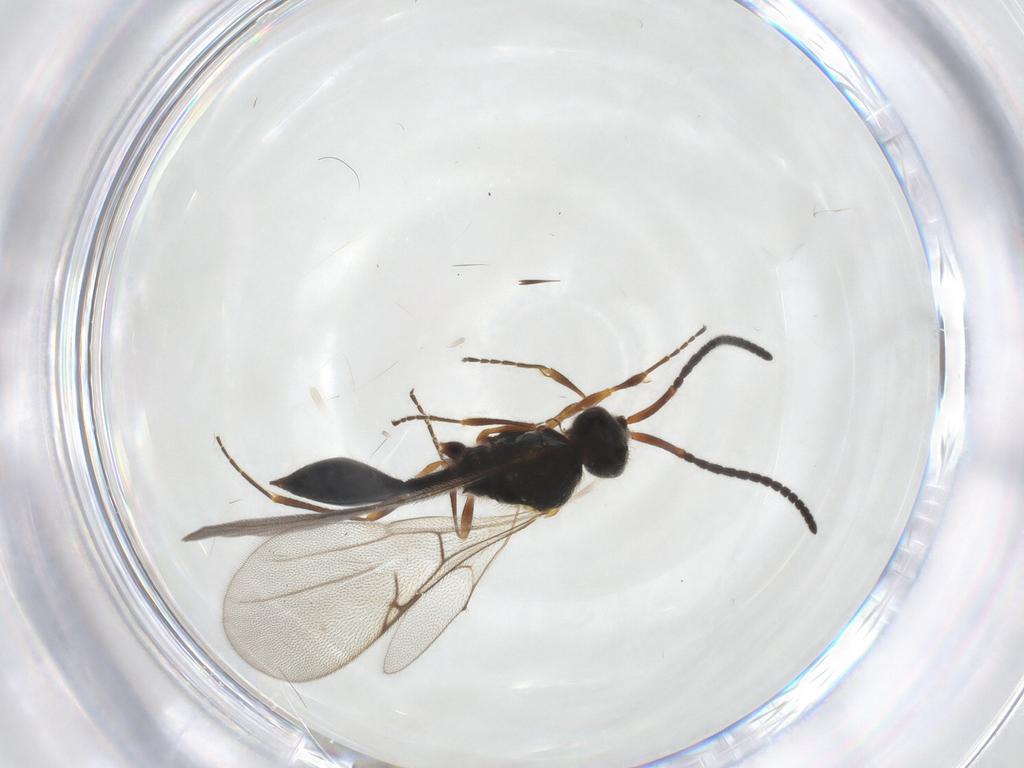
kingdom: Animalia
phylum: Arthropoda
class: Insecta
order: Hymenoptera
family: Diapriidae
